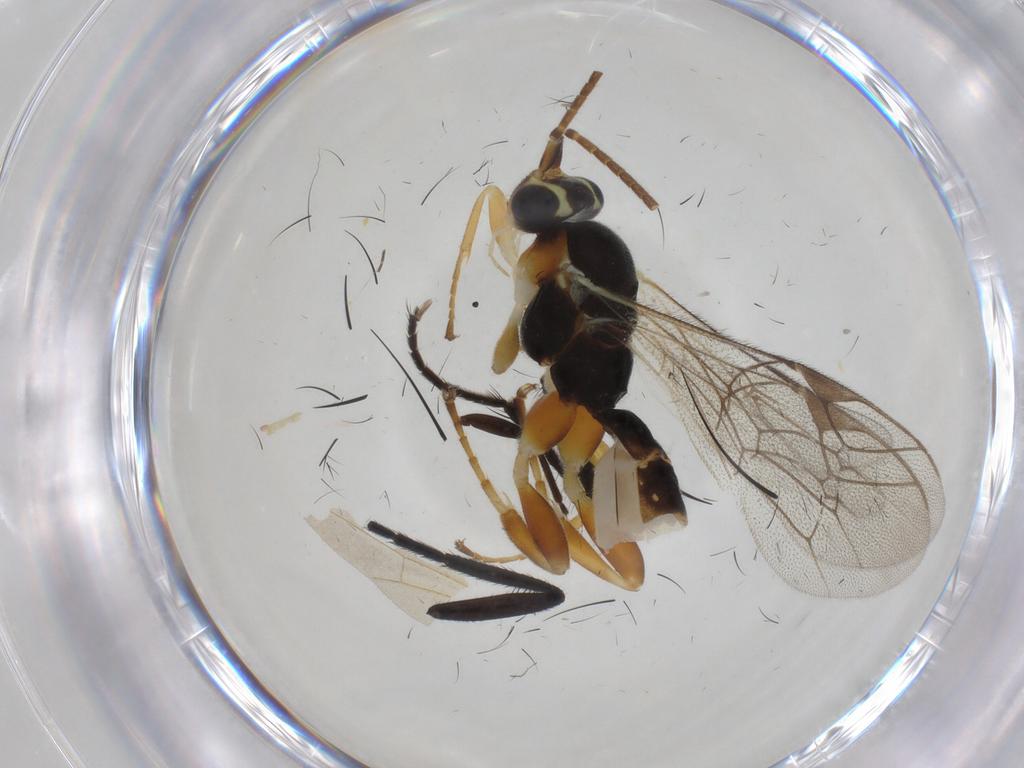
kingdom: Animalia
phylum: Arthropoda
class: Insecta
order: Hymenoptera
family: Ichneumonidae
